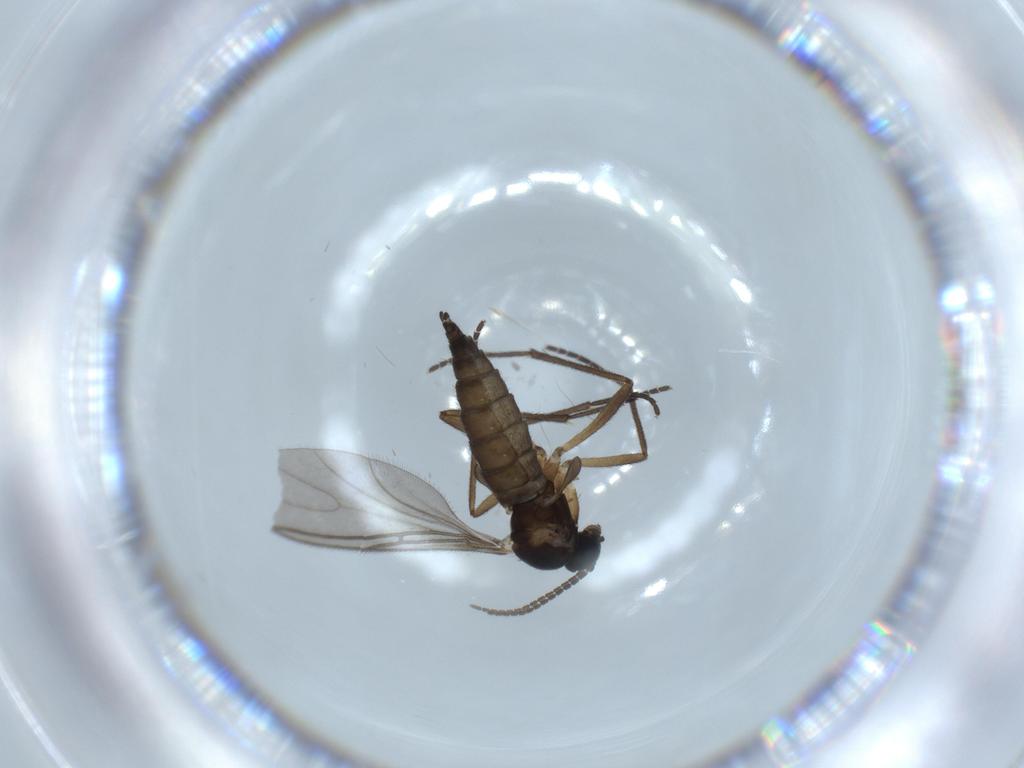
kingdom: Animalia
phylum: Arthropoda
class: Insecta
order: Diptera
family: Sciaridae
